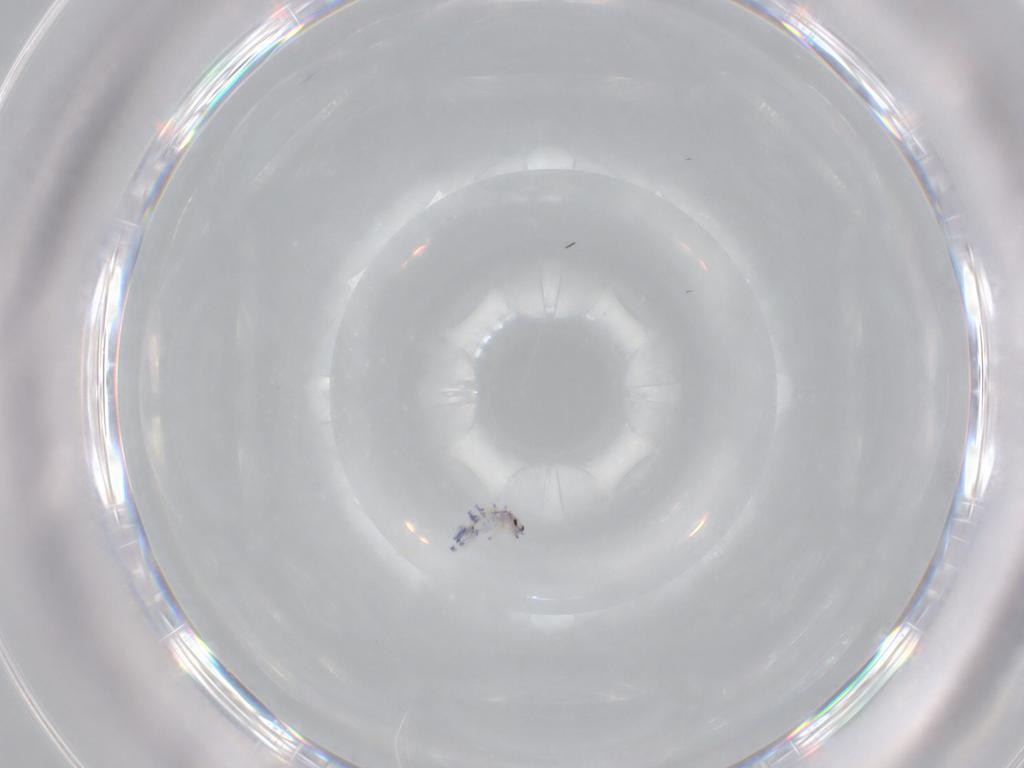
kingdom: Animalia
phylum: Arthropoda
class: Collembola
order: Entomobryomorpha
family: Entomobryidae
